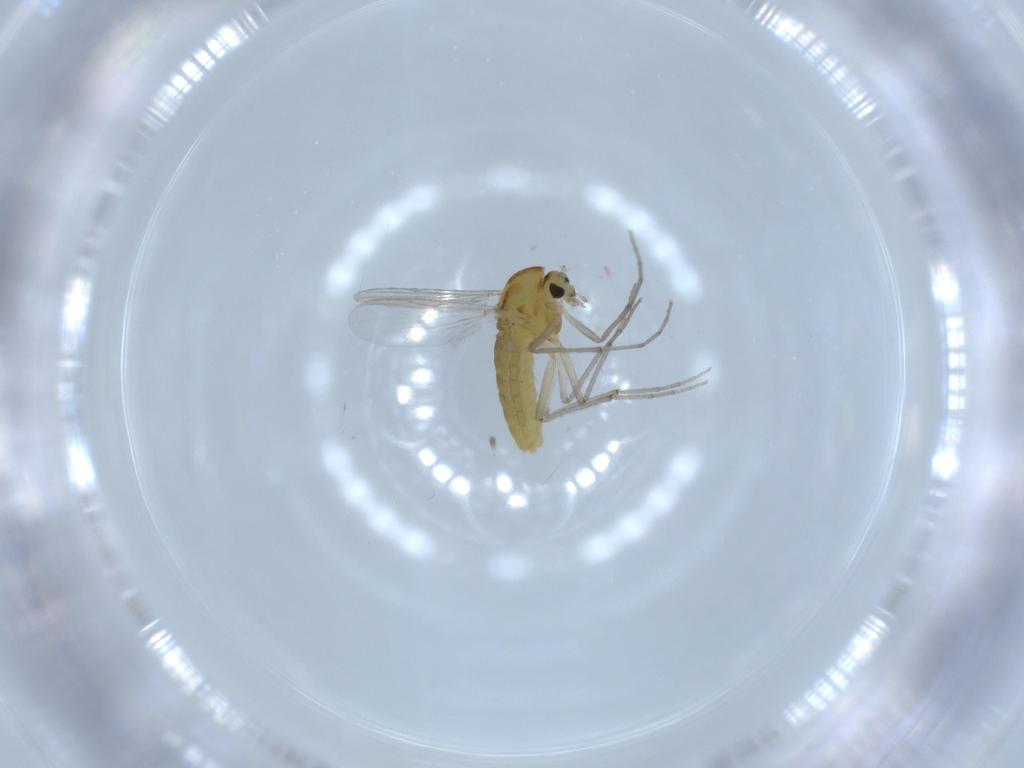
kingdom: Animalia
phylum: Arthropoda
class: Insecta
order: Diptera
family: Chironomidae
